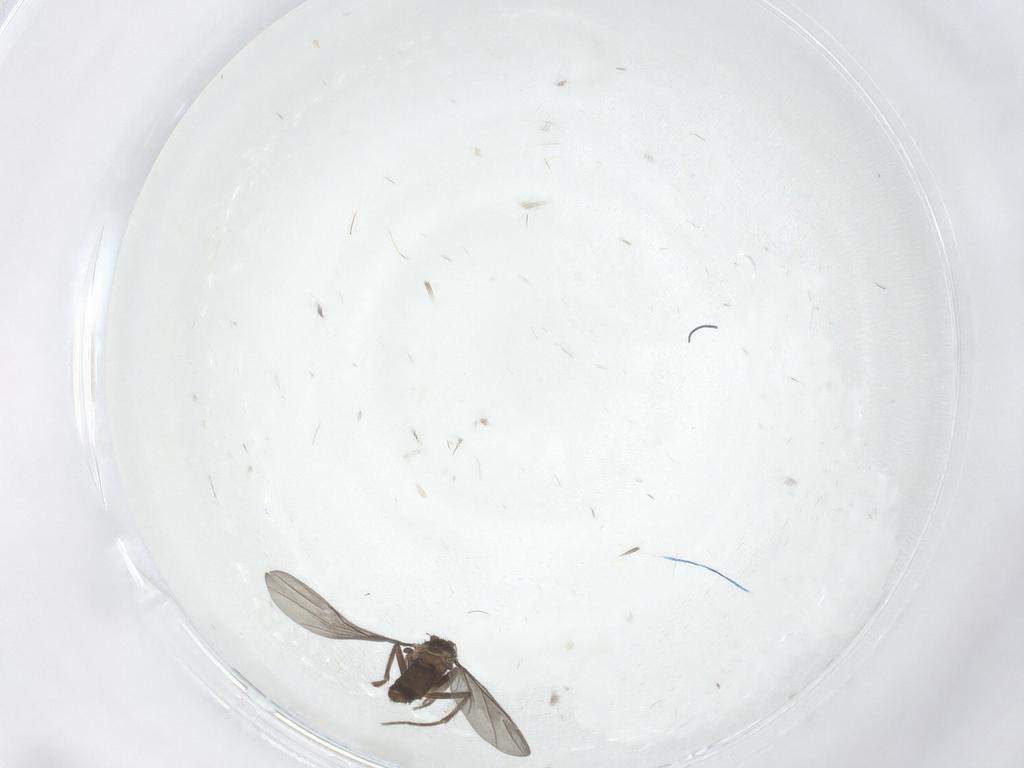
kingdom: Animalia
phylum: Arthropoda
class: Insecta
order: Diptera
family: Phoridae
